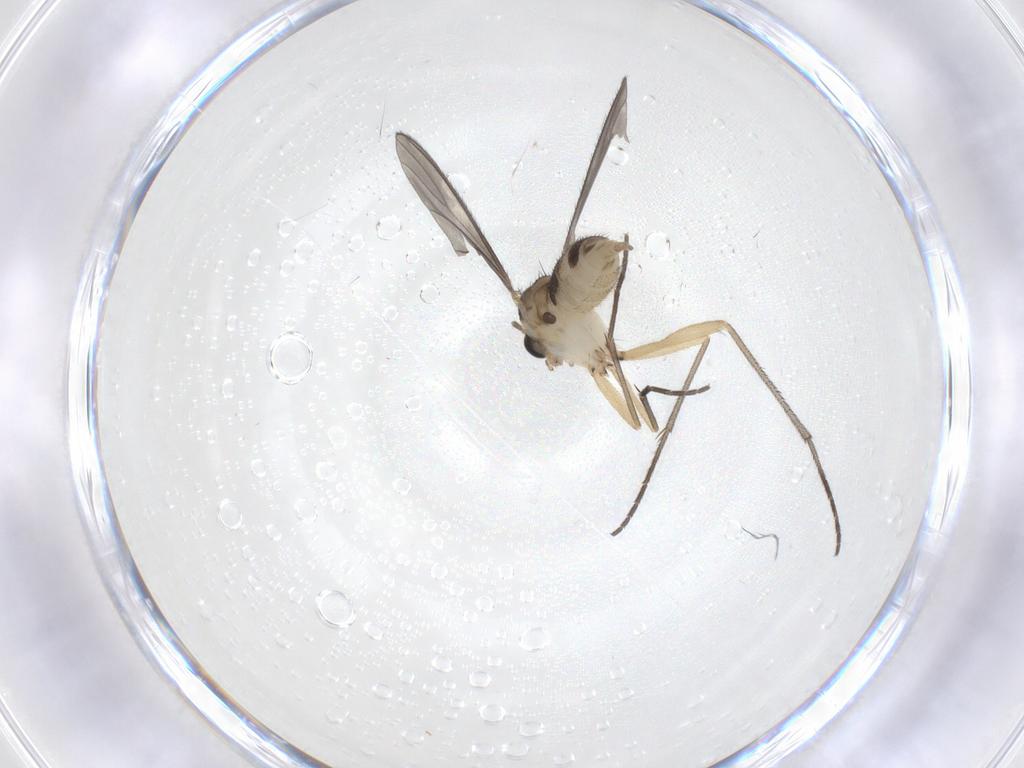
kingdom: Animalia
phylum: Arthropoda
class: Insecta
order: Diptera
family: Sciaridae
